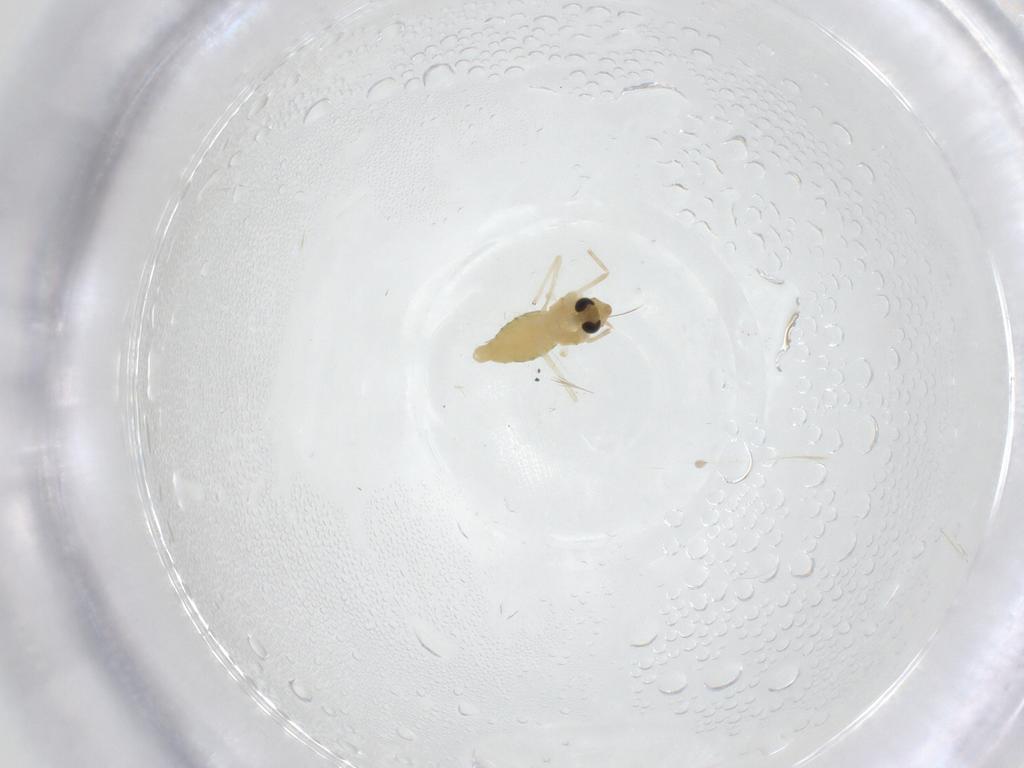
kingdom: Animalia
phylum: Arthropoda
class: Insecta
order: Diptera
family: Chironomidae
